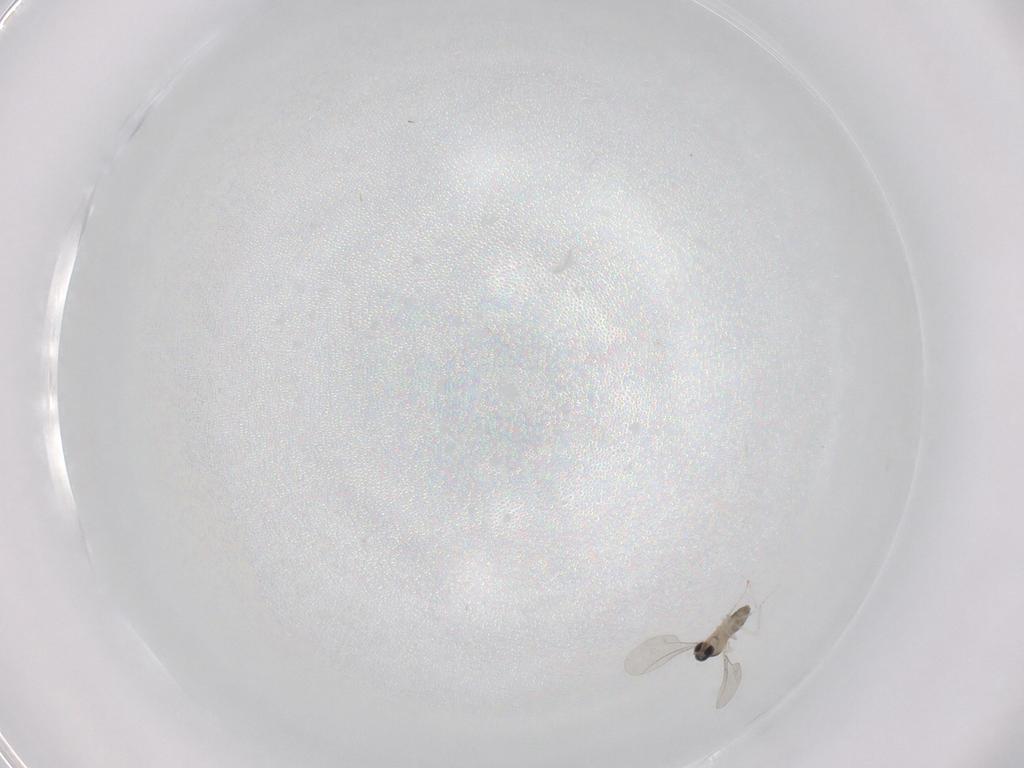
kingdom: Animalia
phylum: Arthropoda
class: Insecta
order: Diptera
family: Cecidomyiidae
